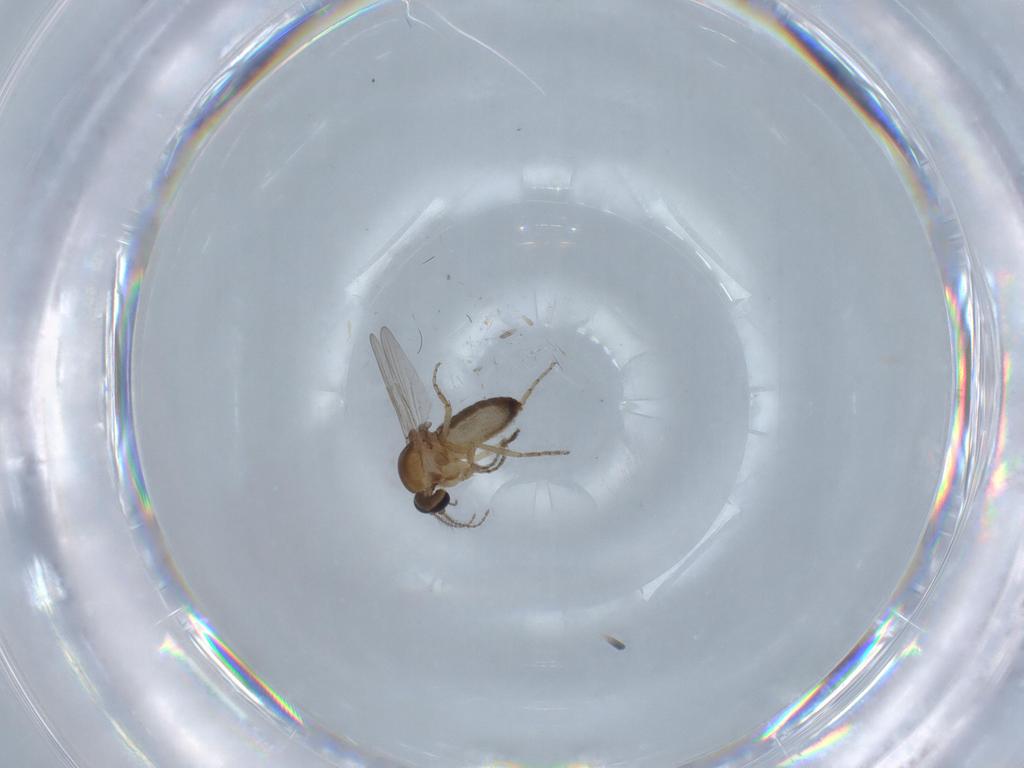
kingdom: Animalia
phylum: Arthropoda
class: Insecta
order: Diptera
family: Ceratopogonidae
